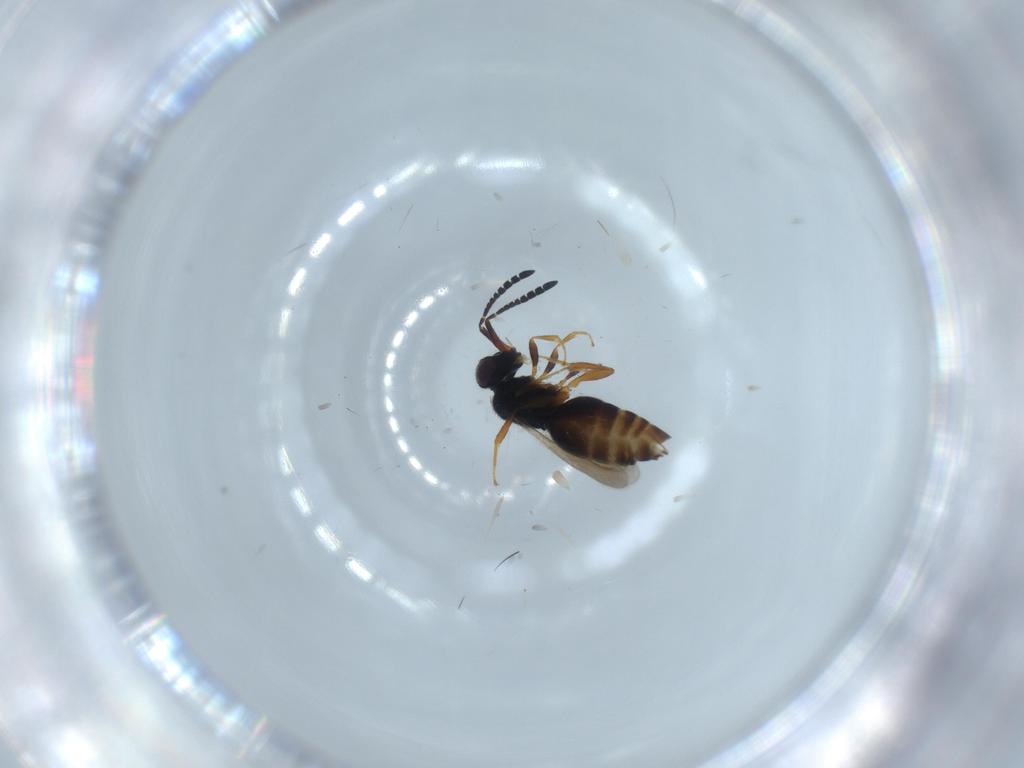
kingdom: Animalia
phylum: Arthropoda
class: Insecta
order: Hymenoptera
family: Ceraphronidae
